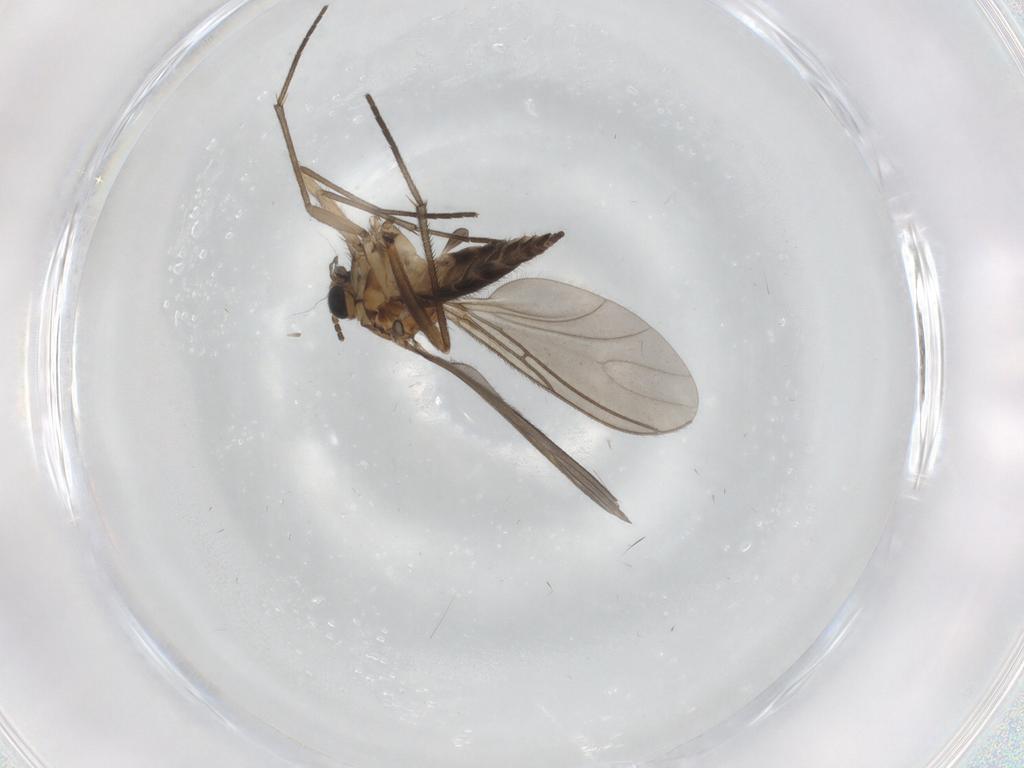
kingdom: Animalia
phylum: Arthropoda
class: Insecta
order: Diptera
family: Sciaridae
